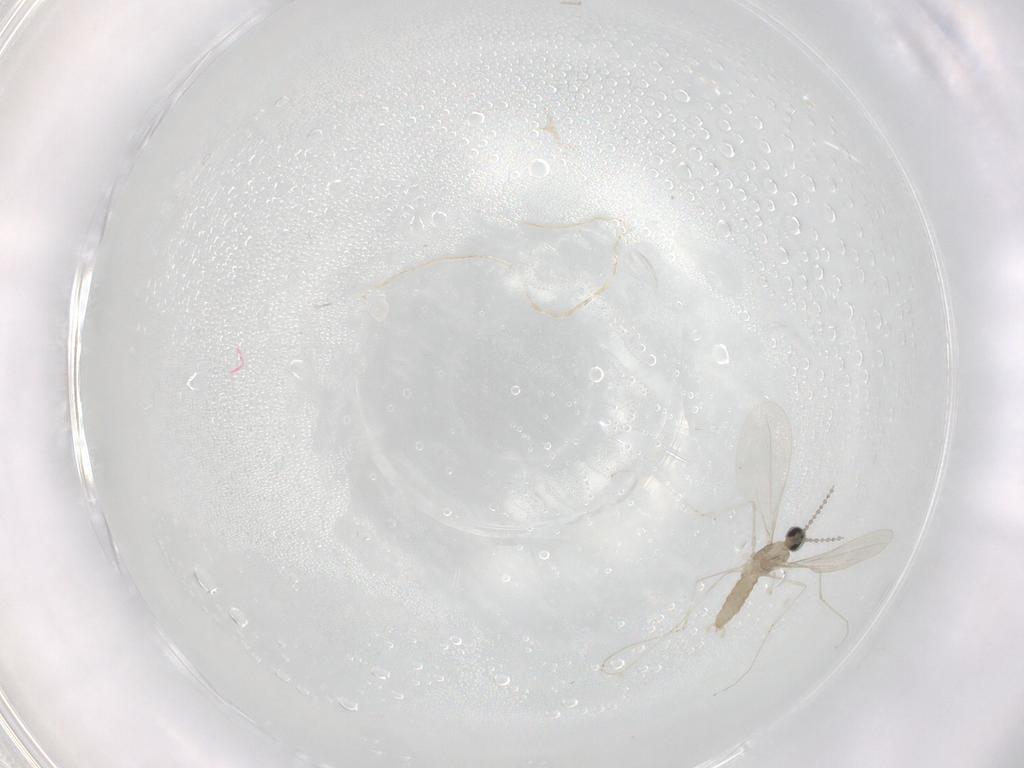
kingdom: Animalia
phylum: Arthropoda
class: Insecta
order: Diptera
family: Cecidomyiidae
